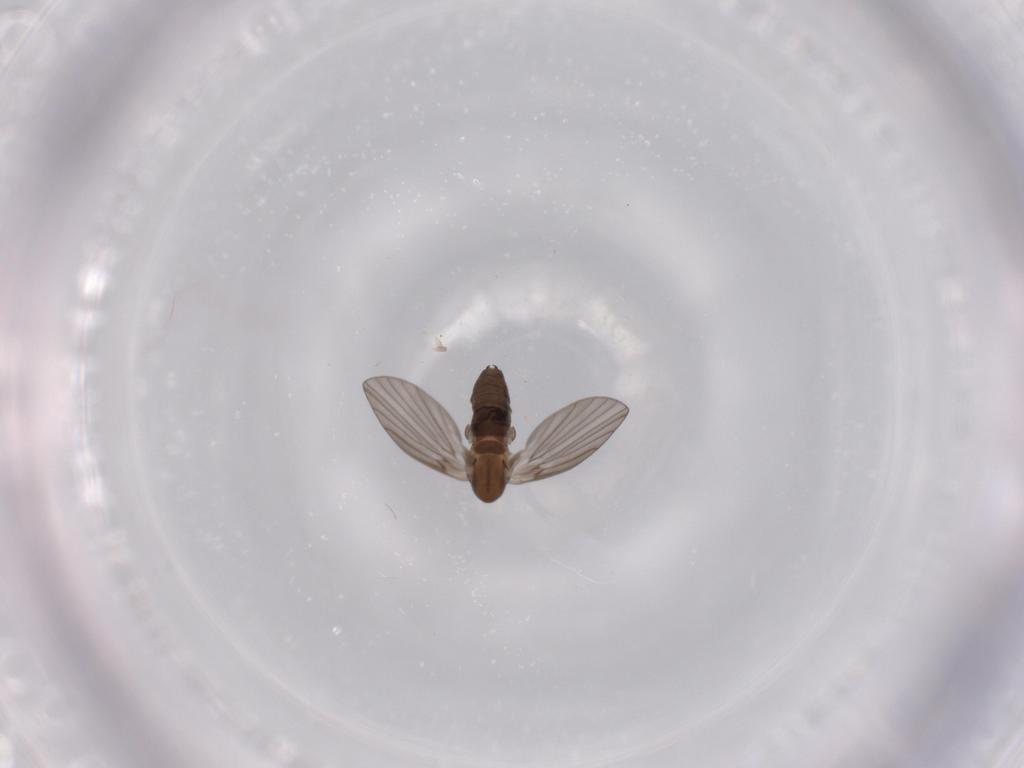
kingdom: Animalia
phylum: Arthropoda
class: Insecta
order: Diptera
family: Psychodidae
